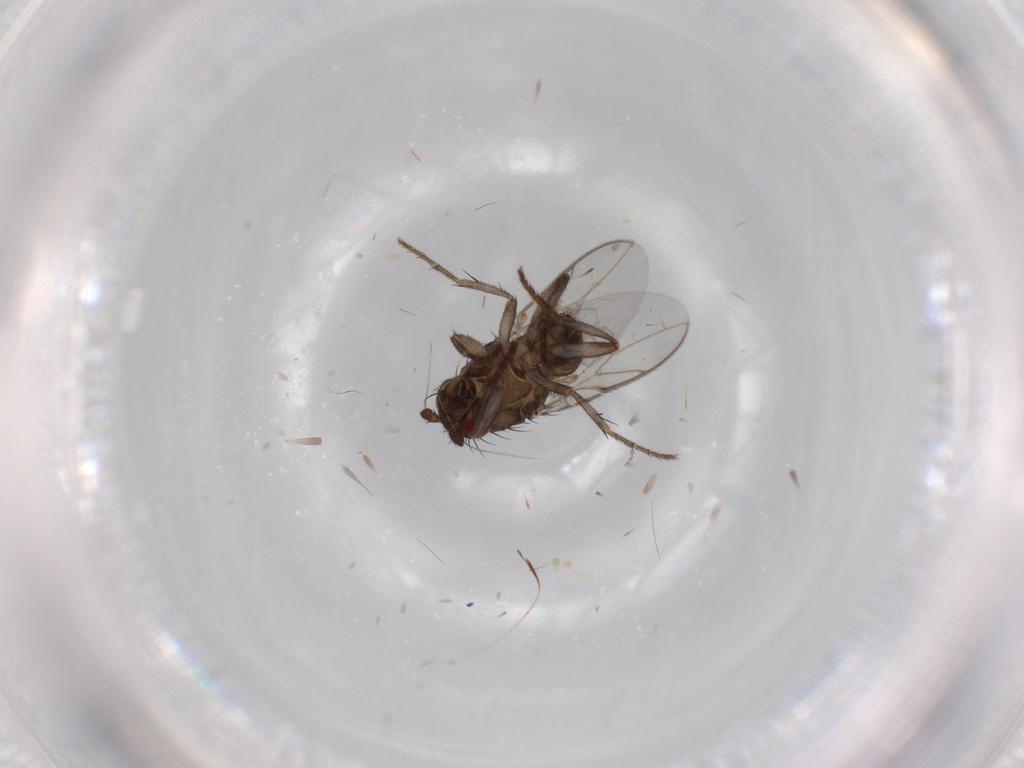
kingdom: Animalia
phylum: Arthropoda
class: Insecta
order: Diptera
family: Sphaeroceridae
